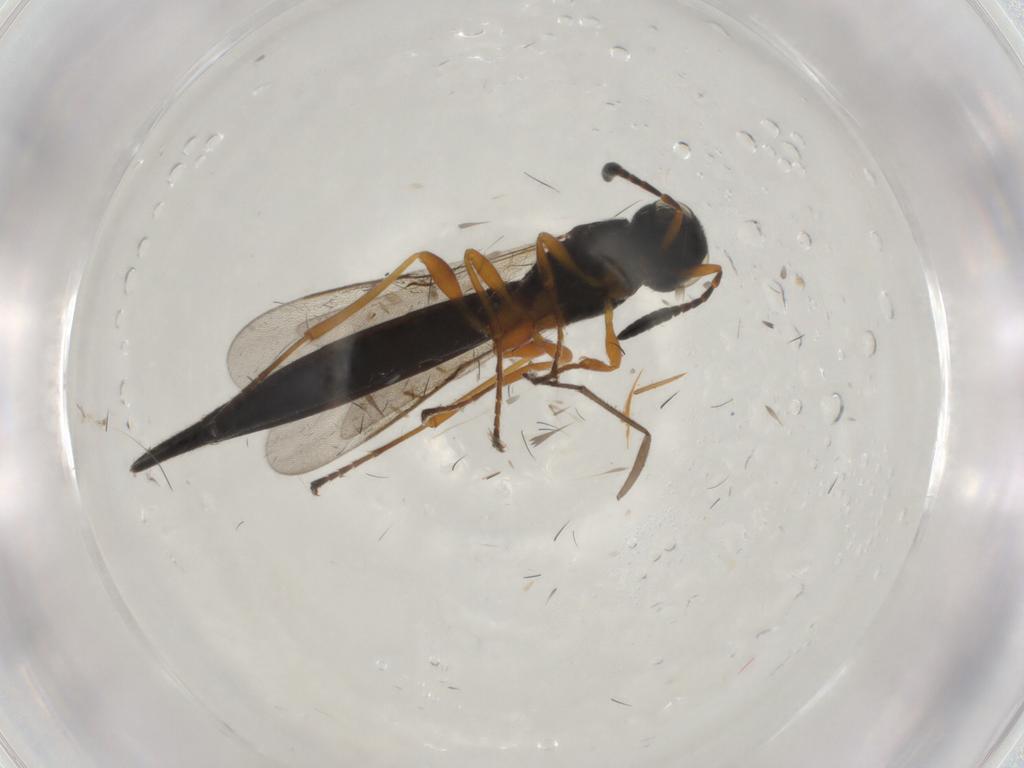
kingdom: Animalia
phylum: Arthropoda
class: Insecta
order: Hymenoptera
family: Scelionidae
